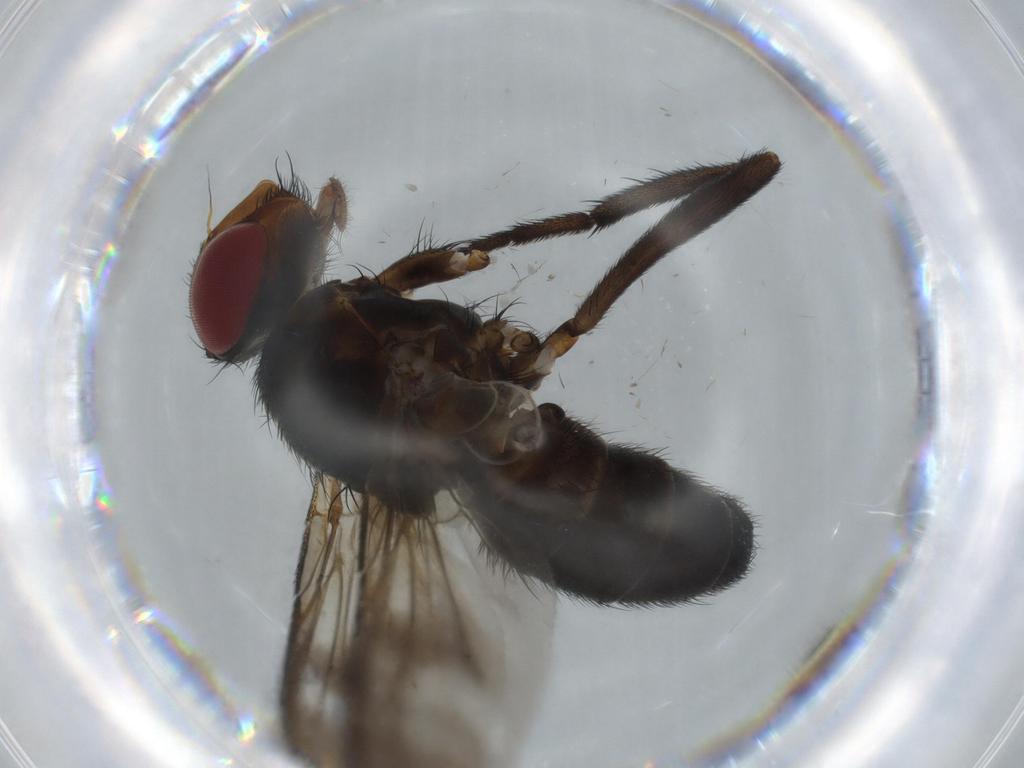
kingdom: Animalia
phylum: Arthropoda
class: Insecta
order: Diptera
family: Calliphoridae
